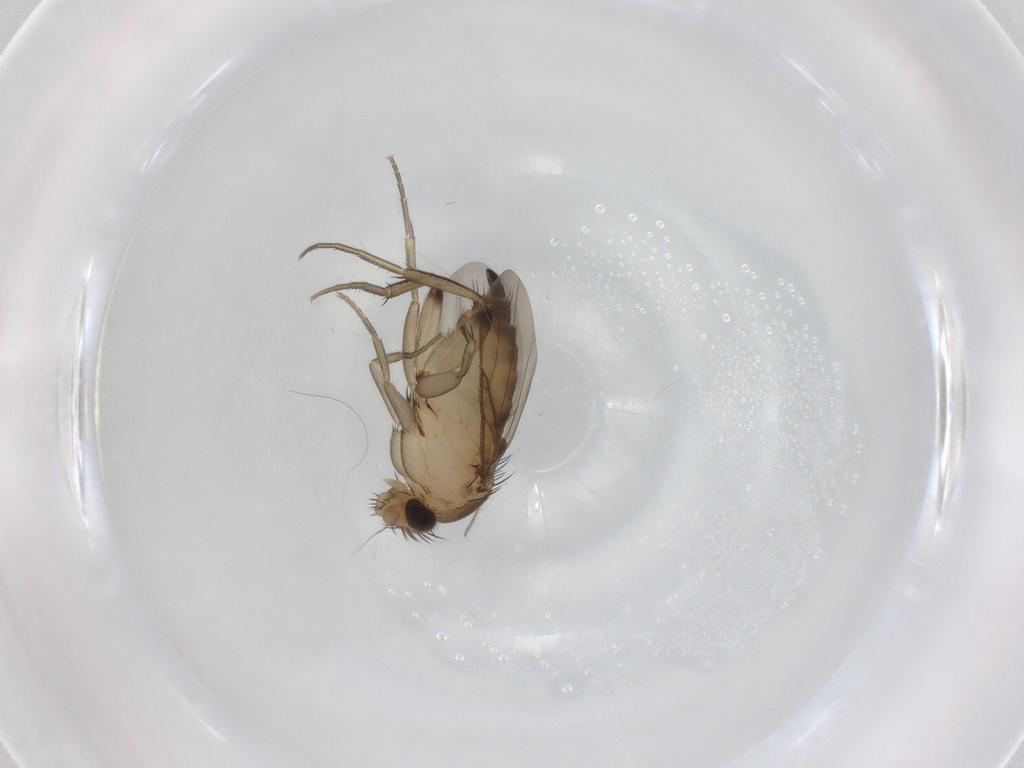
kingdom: Animalia
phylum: Arthropoda
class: Insecta
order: Diptera
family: Phoridae
